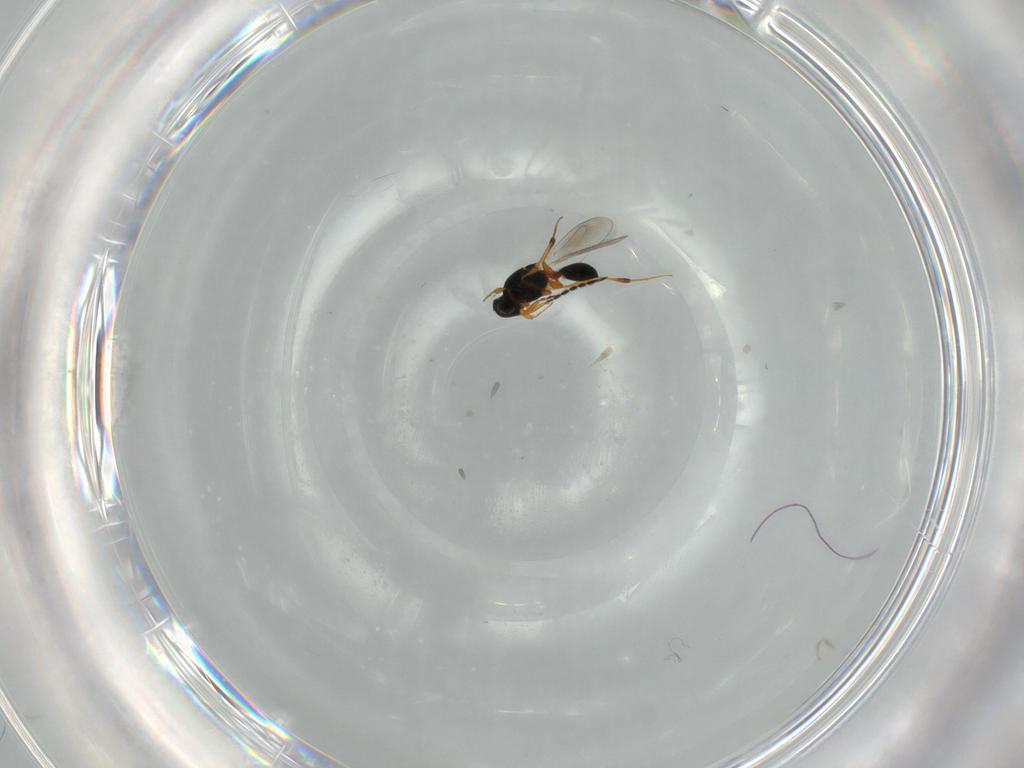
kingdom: Animalia
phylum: Arthropoda
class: Insecta
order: Hymenoptera
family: Platygastridae
